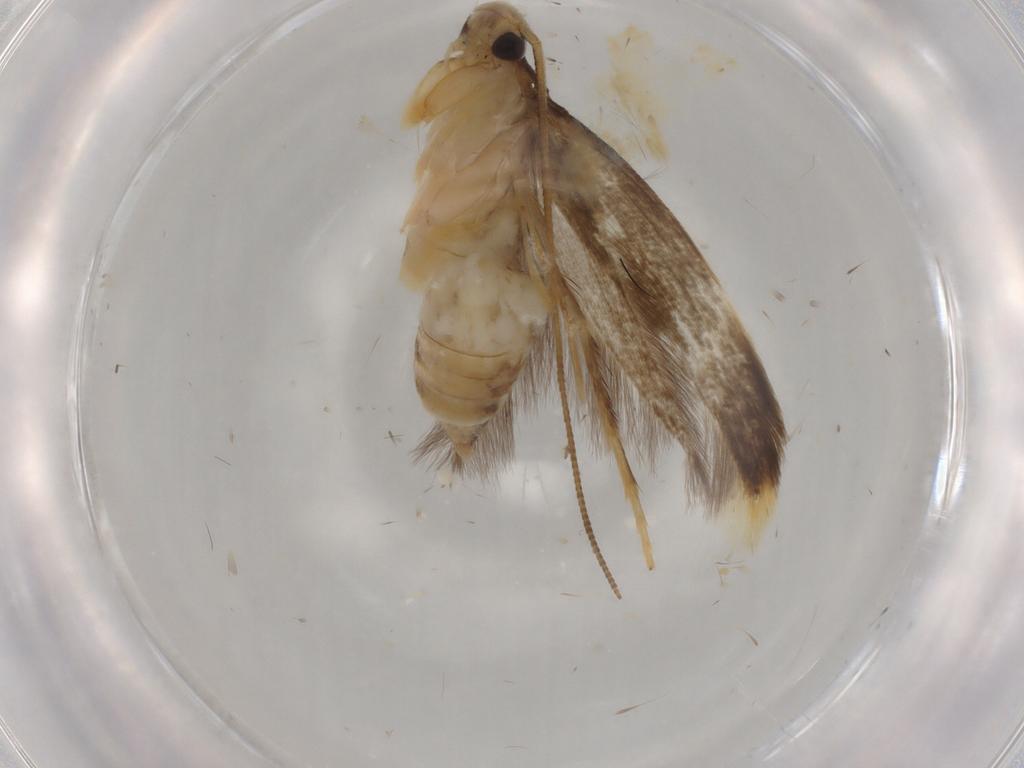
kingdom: Animalia
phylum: Arthropoda
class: Insecta
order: Lepidoptera
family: Tineidae
